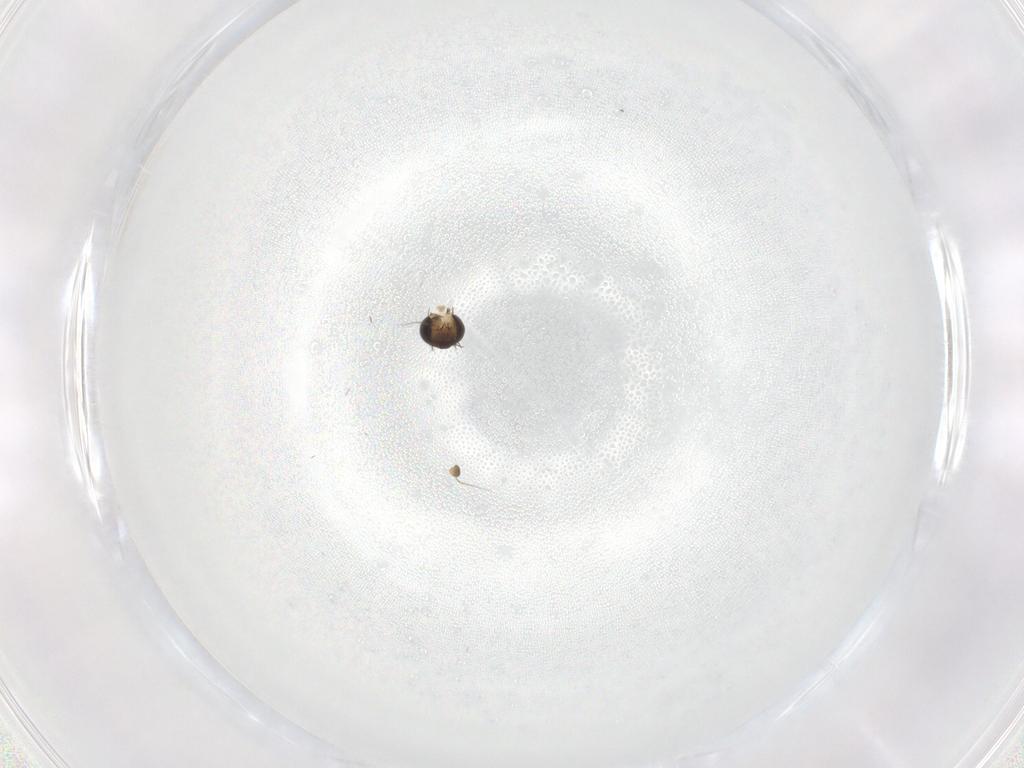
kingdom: Animalia
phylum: Arthropoda
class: Insecta
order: Diptera
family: Phoridae
